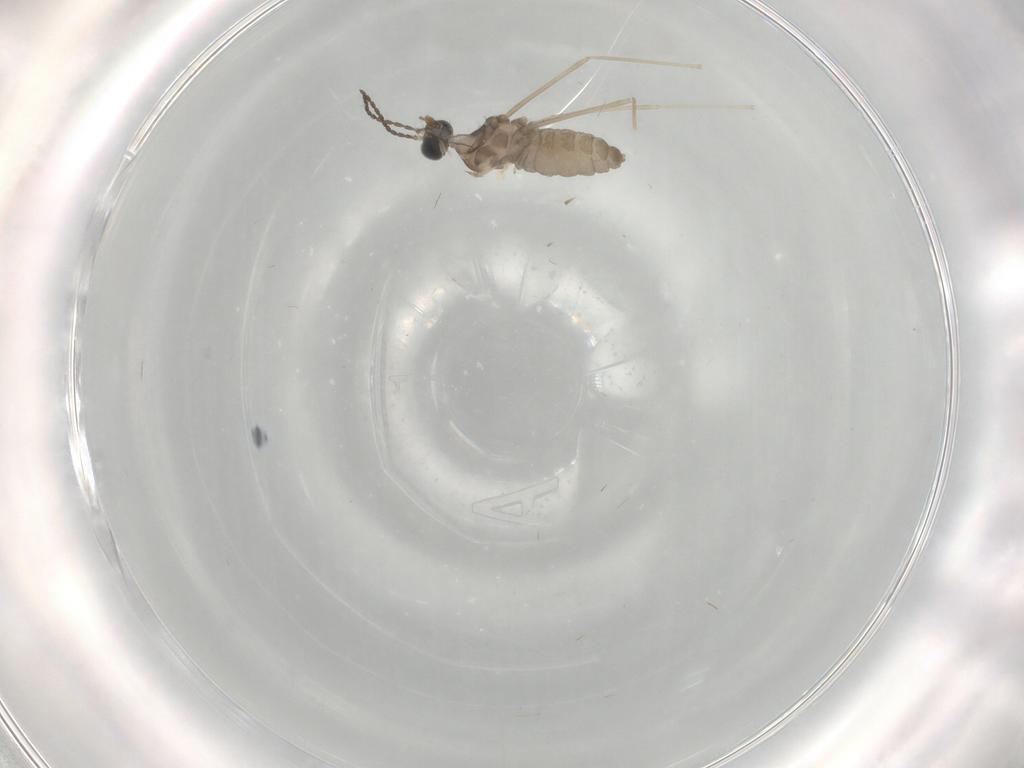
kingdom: Animalia
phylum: Arthropoda
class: Insecta
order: Diptera
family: Cecidomyiidae
